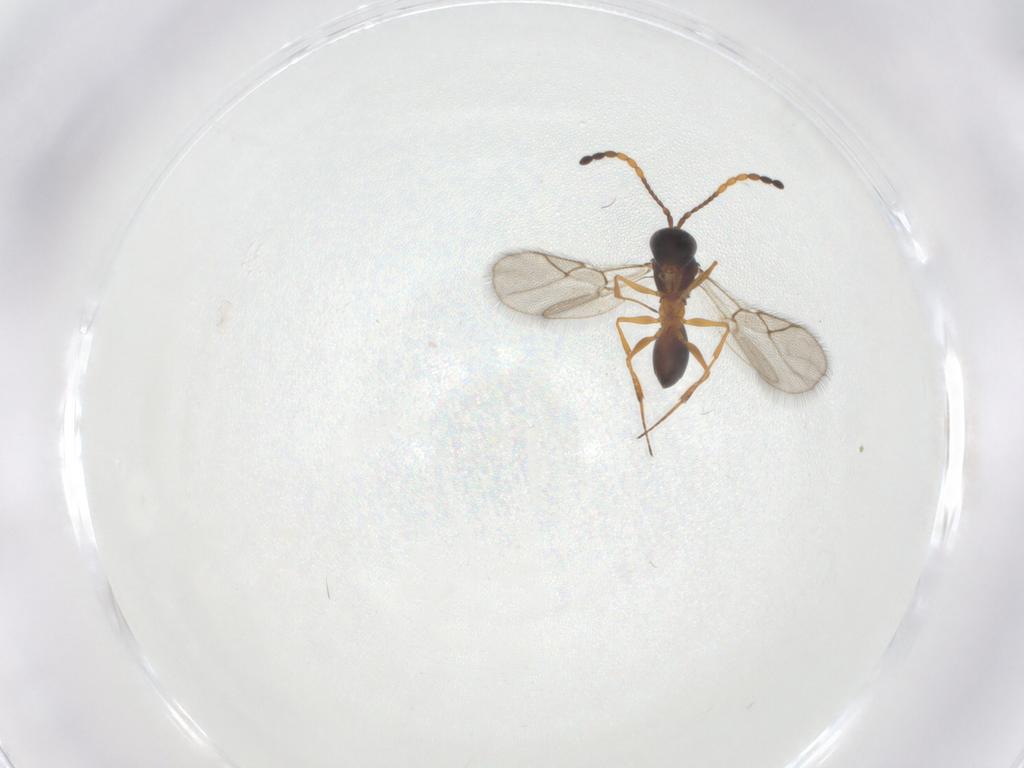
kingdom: Animalia
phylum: Arthropoda
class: Insecta
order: Hymenoptera
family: Figitidae
